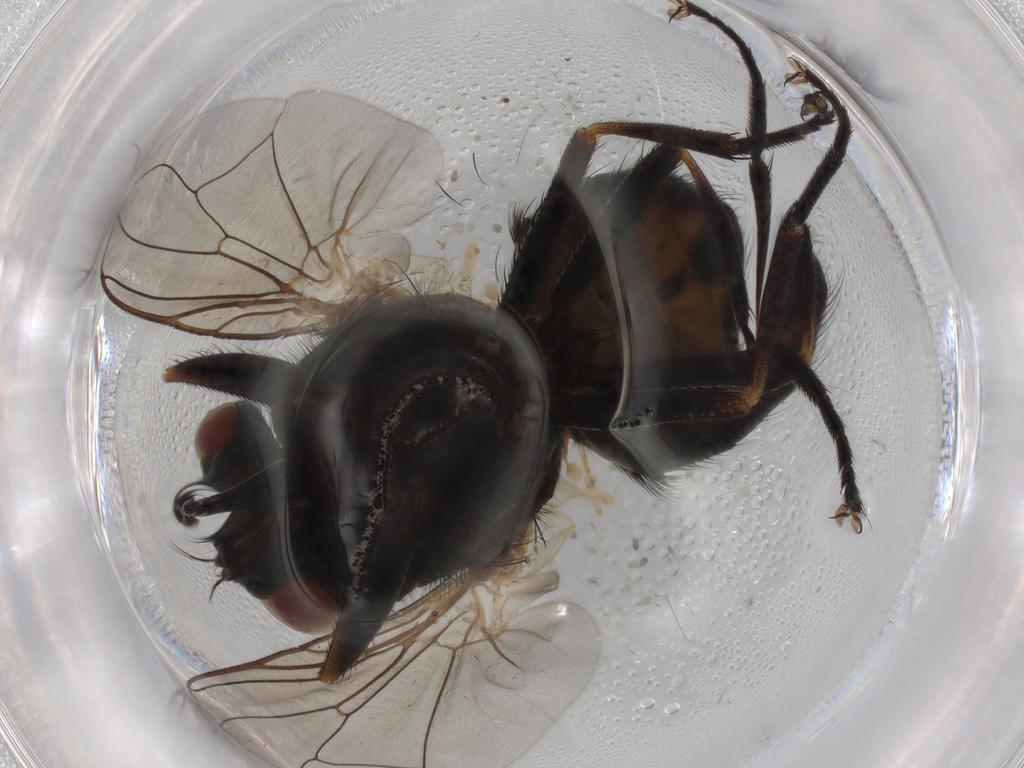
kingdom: Animalia
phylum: Arthropoda
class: Insecta
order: Diptera
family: Muscidae
